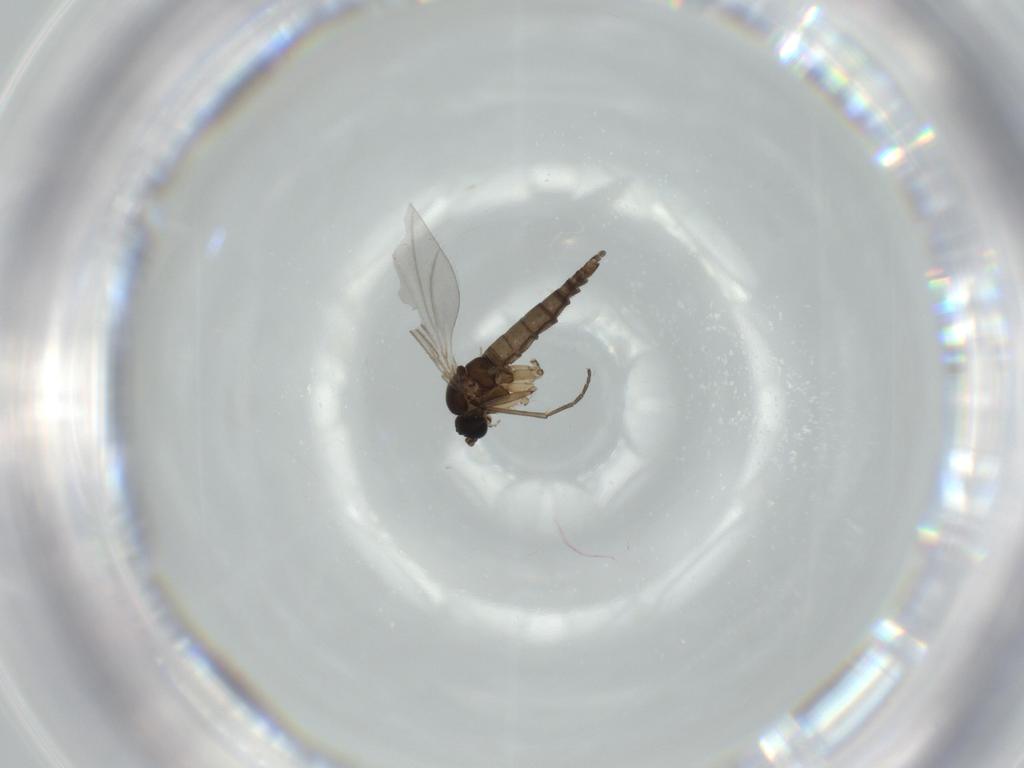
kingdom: Animalia
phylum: Arthropoda
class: Insecta
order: Diptera
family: Sciaridae
